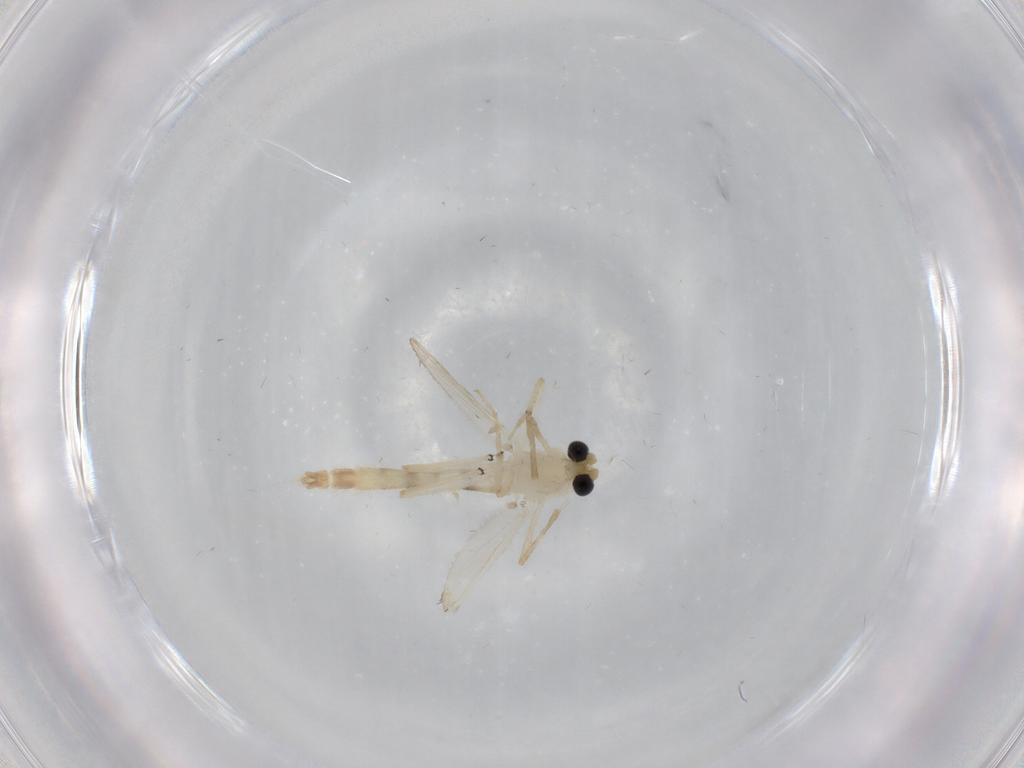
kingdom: Animalia
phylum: Arthropoda
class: Insecta
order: Diptera
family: Chironomidae
